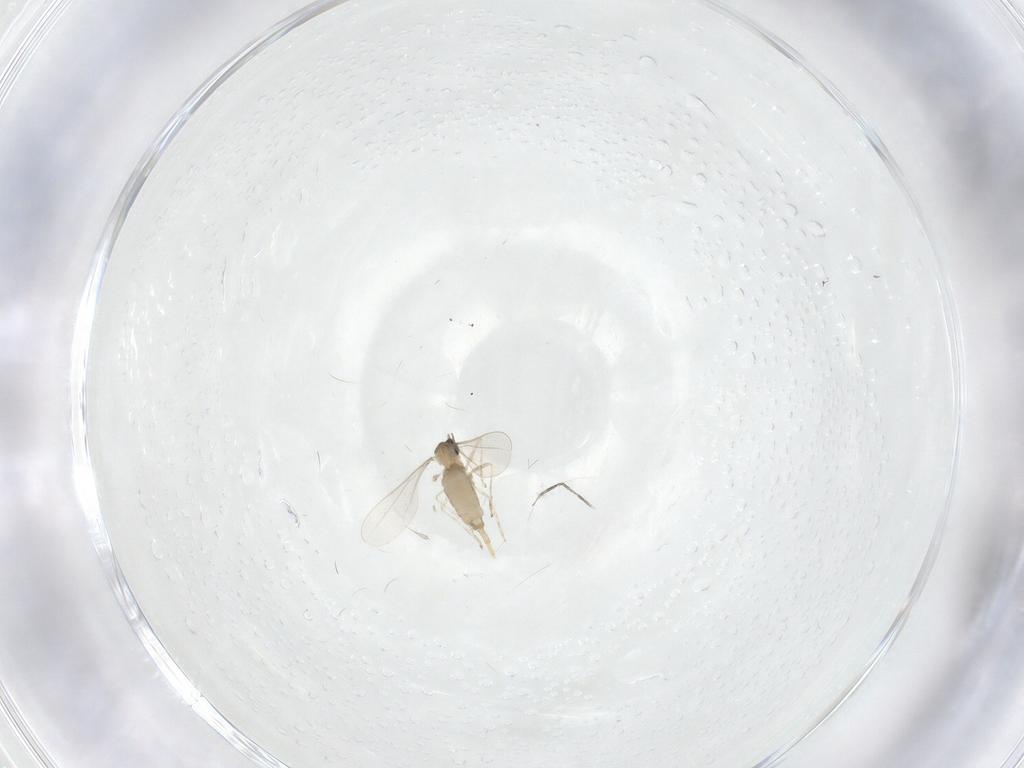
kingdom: Animalia
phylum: Arthropoda
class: Insecta
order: Diptera
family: Cecidomyiidae
